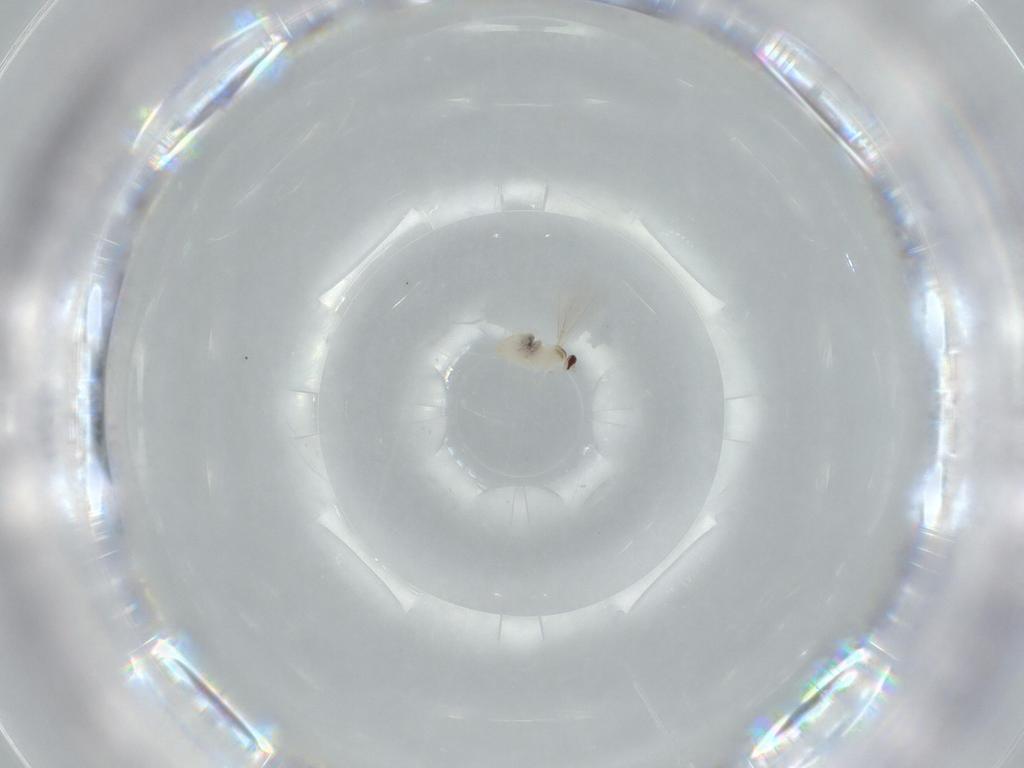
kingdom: Animalia
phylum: Arthropoda
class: Insecta
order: Diptera
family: Cecidomyiidae
